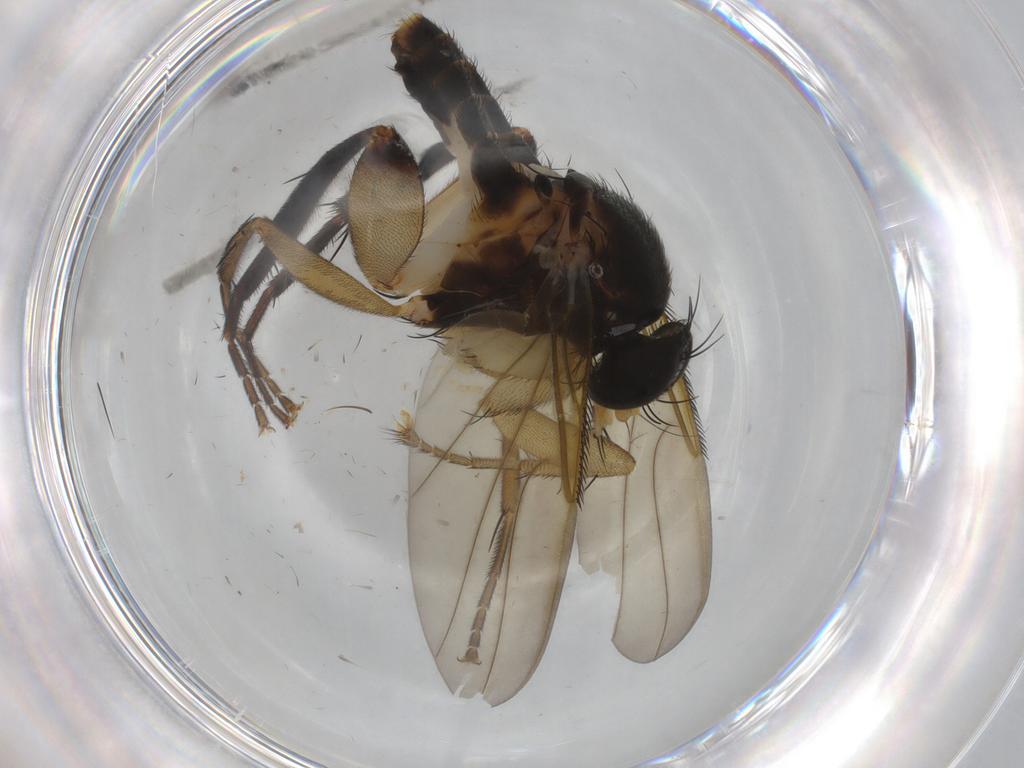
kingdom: Animalia
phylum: Arthropoda
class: Insecta
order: Diptera
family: Phoridae
